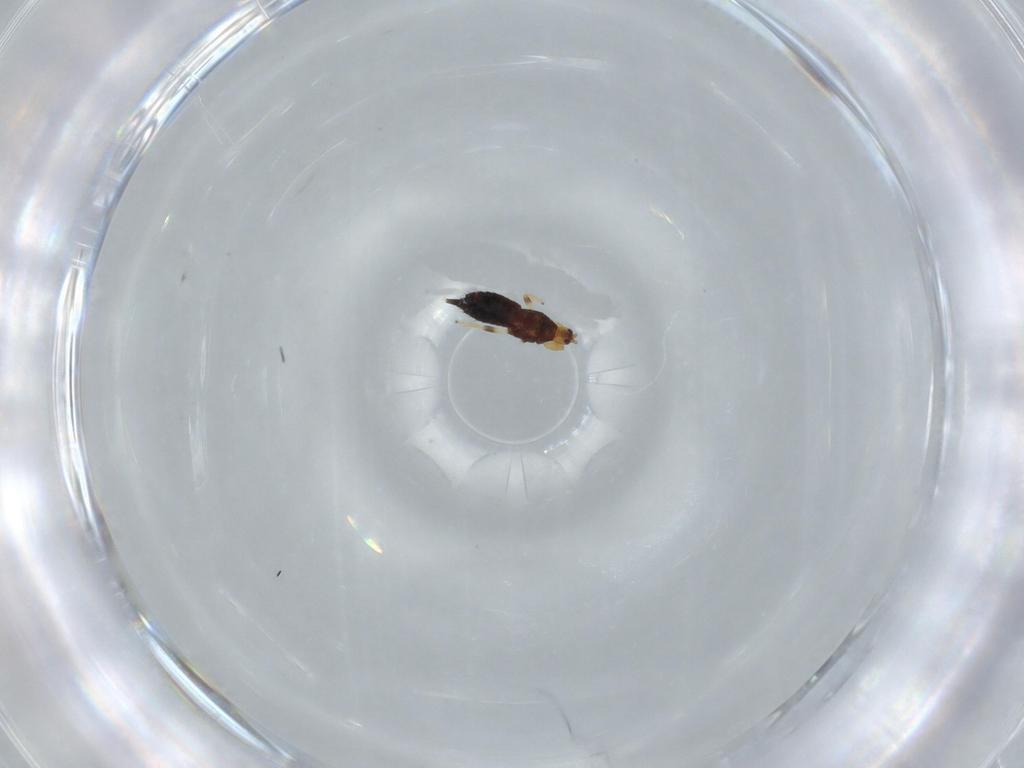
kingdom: Animalia
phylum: Arthropoda
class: Insecta
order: Thysanoptera
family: Phlaeothripidae
